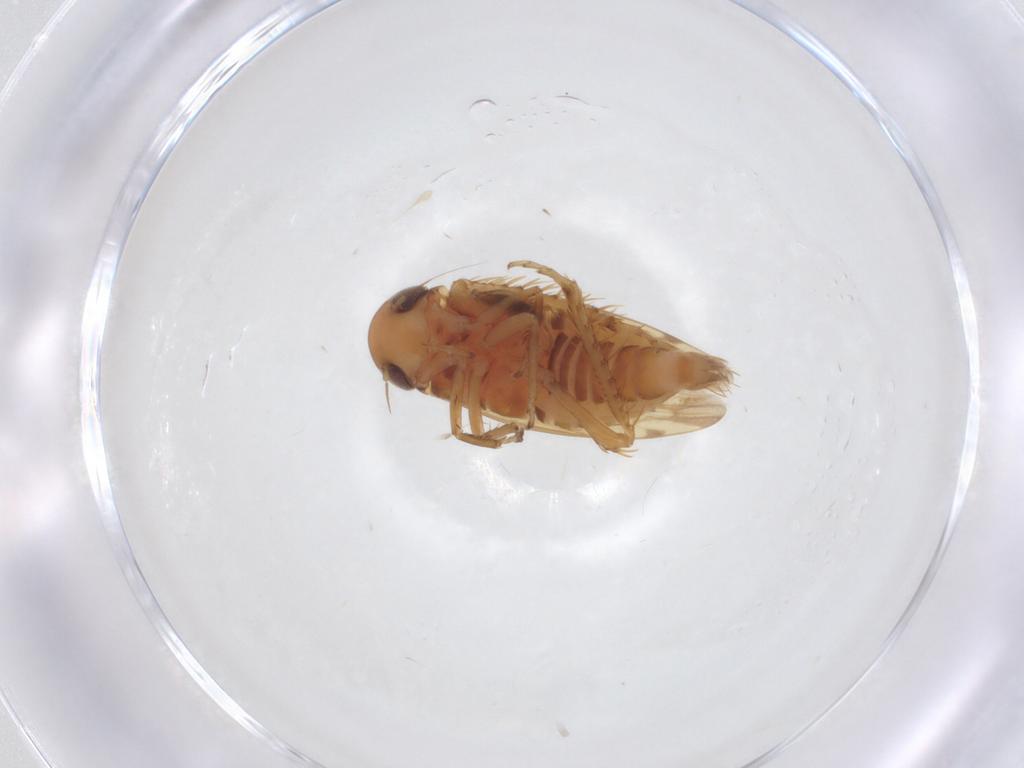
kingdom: Animalia
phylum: Arthropoda
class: Insecta
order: Hemiptera
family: Cicadellidae
